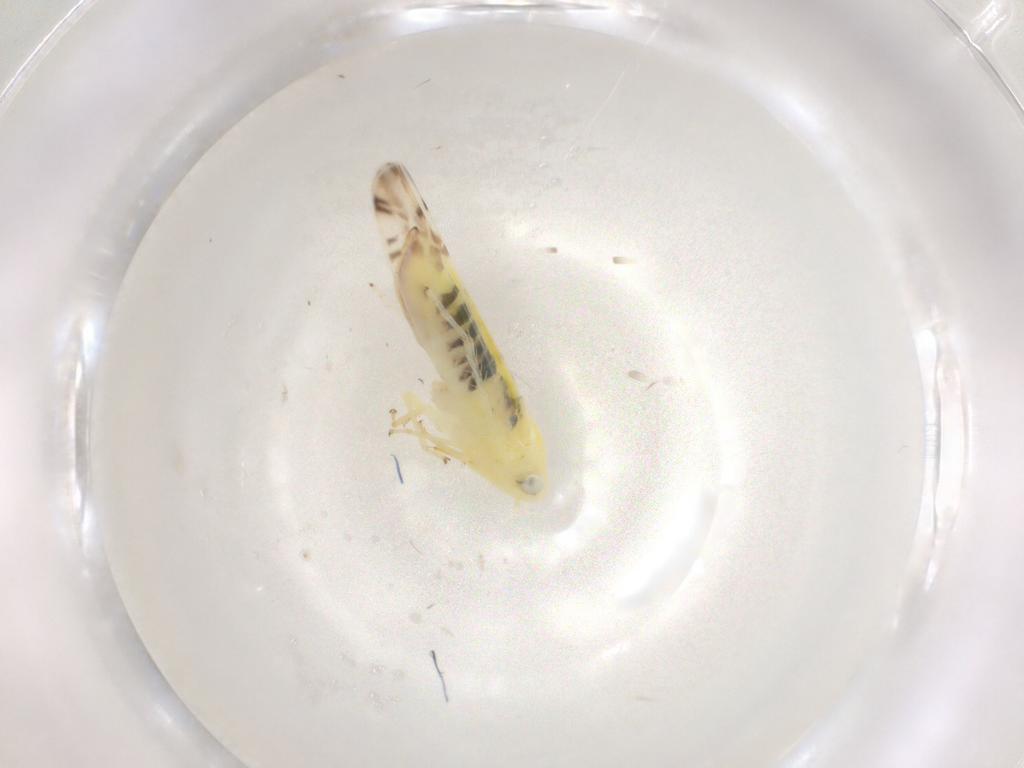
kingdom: Animalia
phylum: Arthropoda
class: Insecta
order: Hemiptera
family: Cicadellidae
